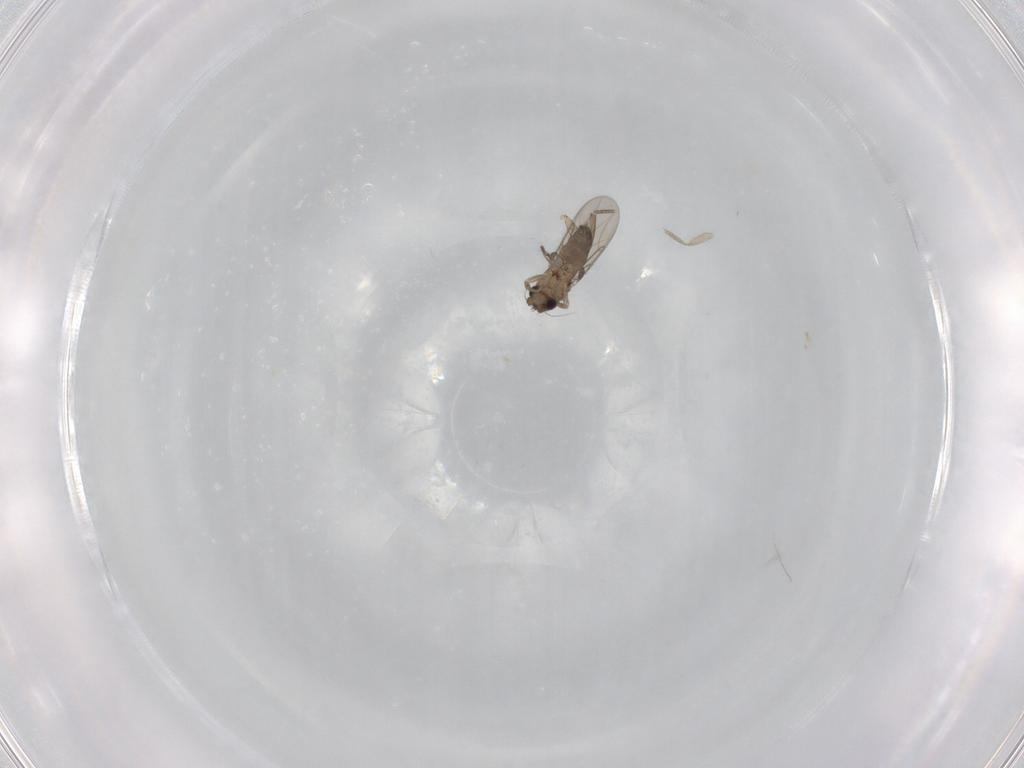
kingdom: Animalia
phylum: Arthropoda
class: Insecta
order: Diptera
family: Phoridae
